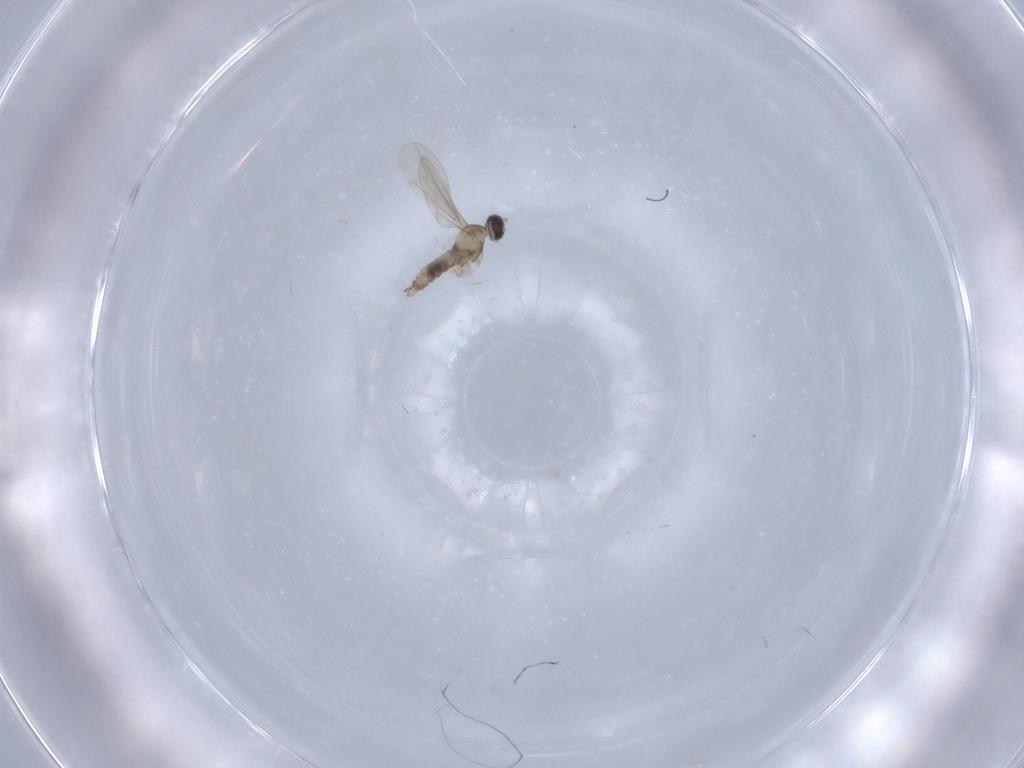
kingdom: Animalia
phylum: Arthropoda
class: Insecta
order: Diptera
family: Cecidomyiidae
